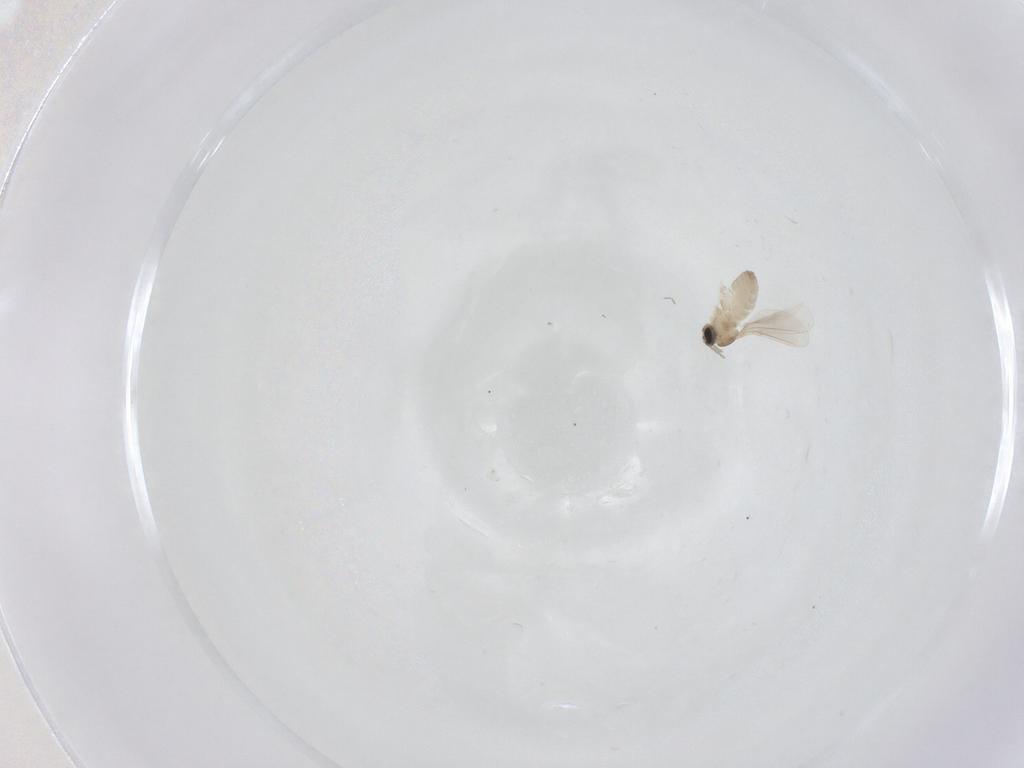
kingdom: Animalia
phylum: Arthropoda
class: Insecta
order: Diptera
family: Cecidomyiidae
